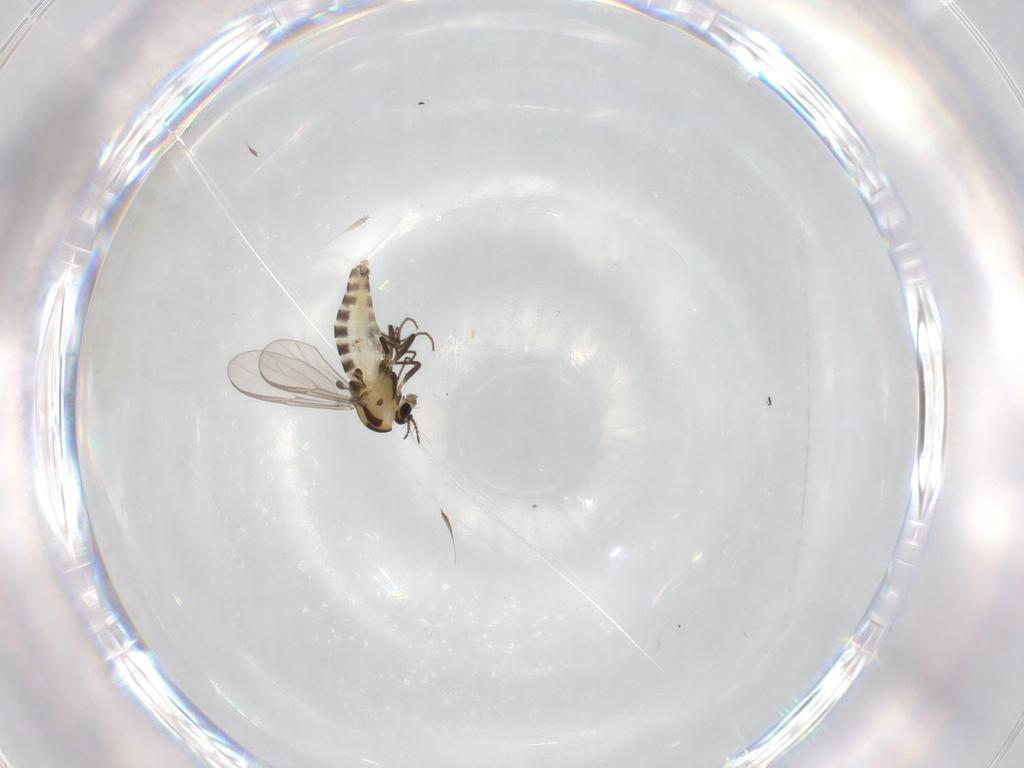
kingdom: Animalia
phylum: Arthropoda
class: Insecta
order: Diptera
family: Chironomidae
